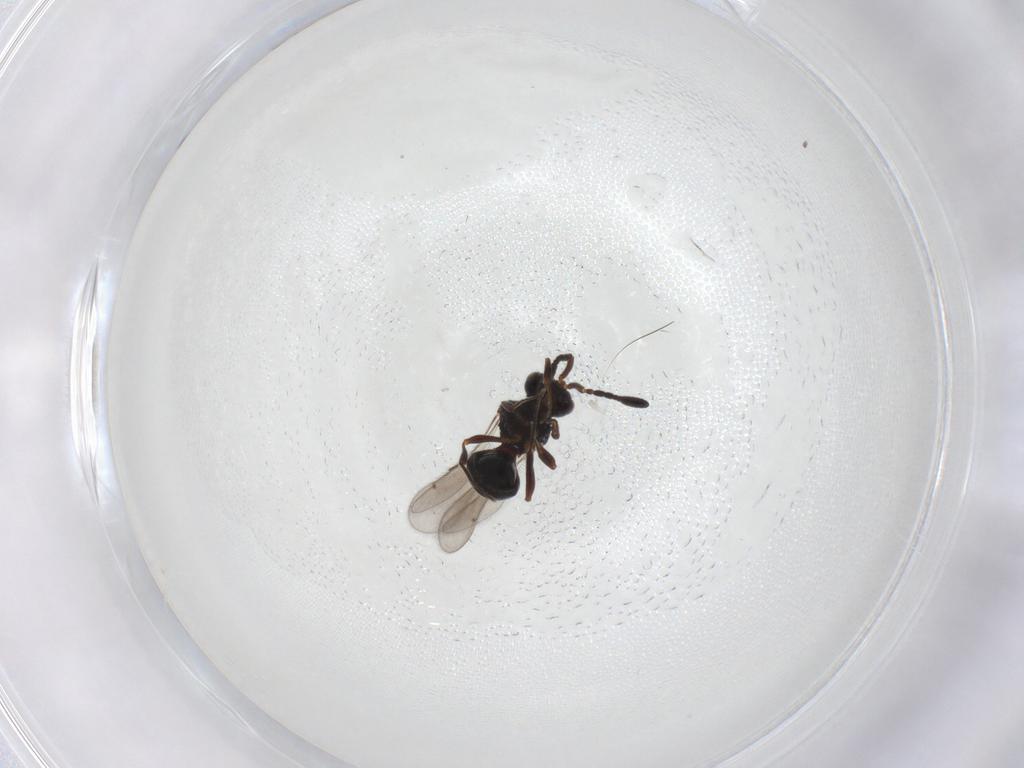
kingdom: Animalia
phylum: Arthropoda
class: Insecta
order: Hymenoptera
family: Scelionidae
